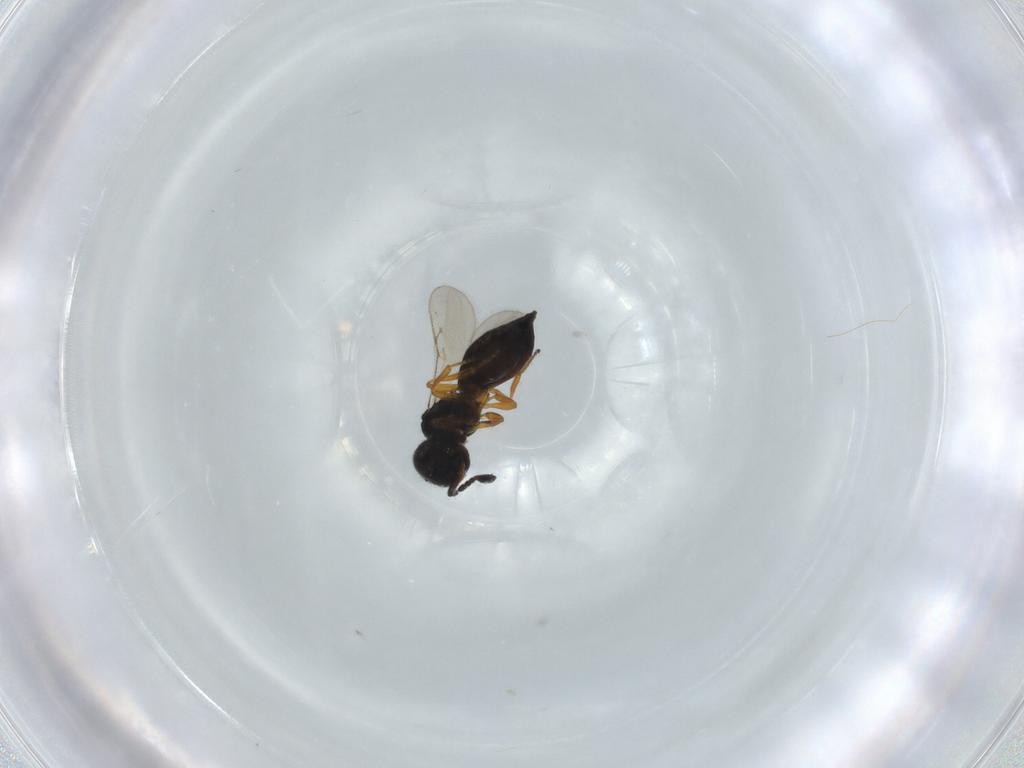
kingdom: Animalia
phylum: Arthropoda
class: Insecta
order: Hymenoptera
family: Scelionidae
